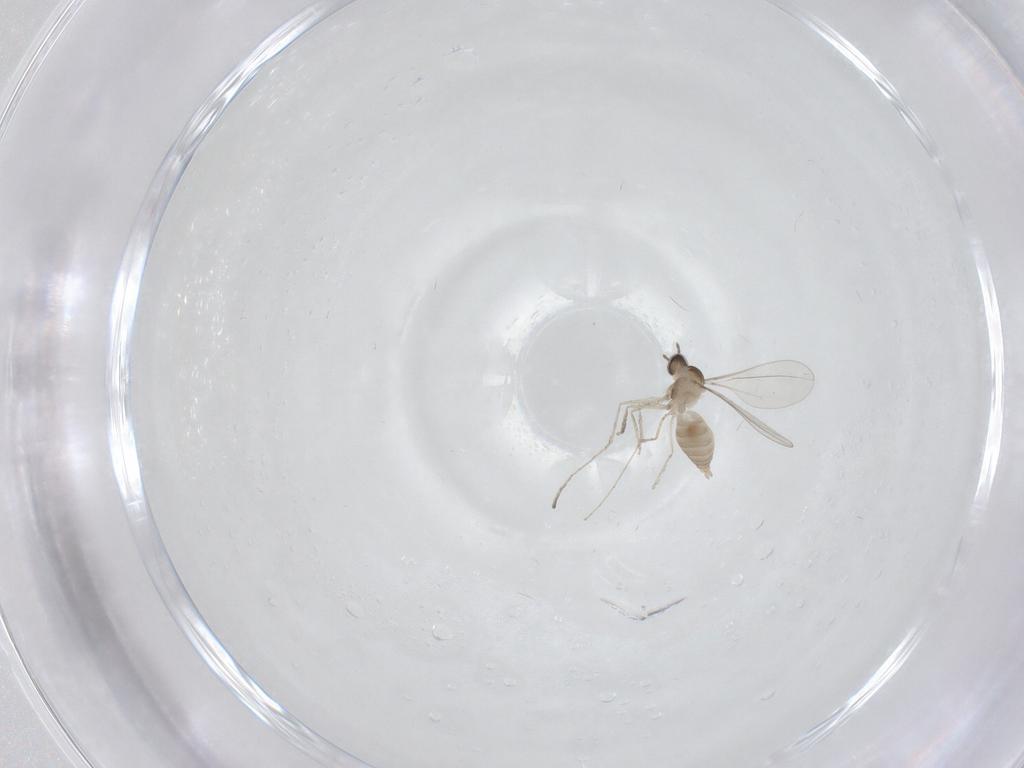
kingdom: Animalia
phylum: Arthropoda
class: Insecta
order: Diptera
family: Cecidomyiidae
